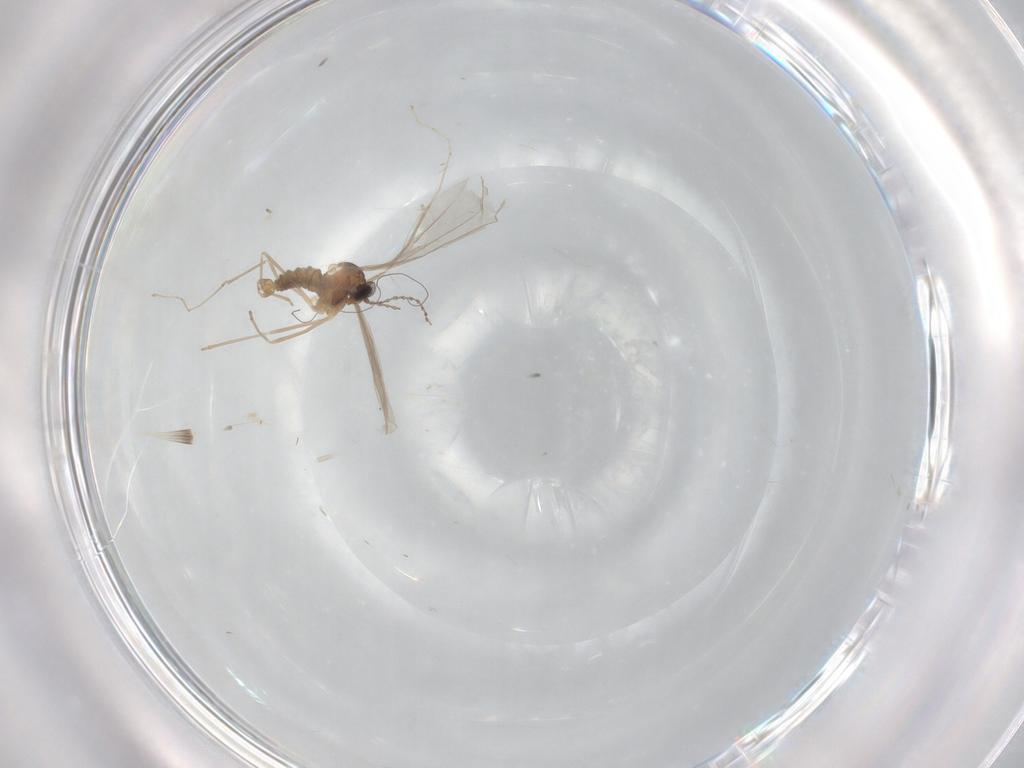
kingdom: Animalia
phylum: Arthropoda
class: Insecta
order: Diptera
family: Cecidomyiidae
